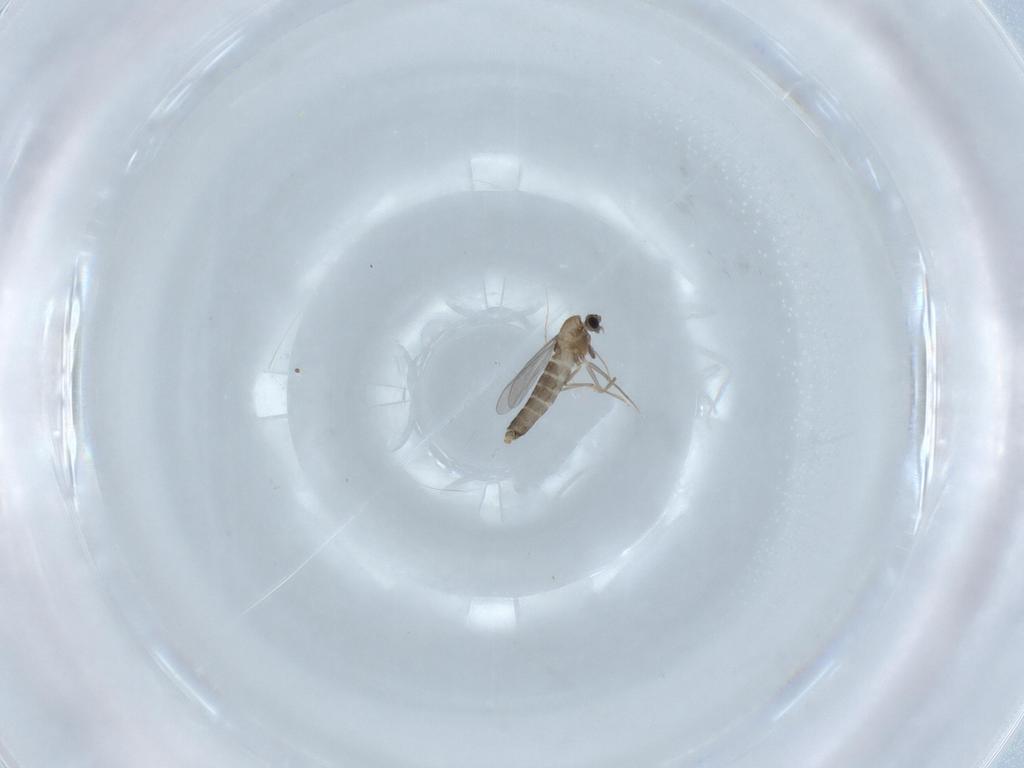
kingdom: Animalia
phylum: Arthropoda
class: Insecta
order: Diptera
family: Chironomidae
